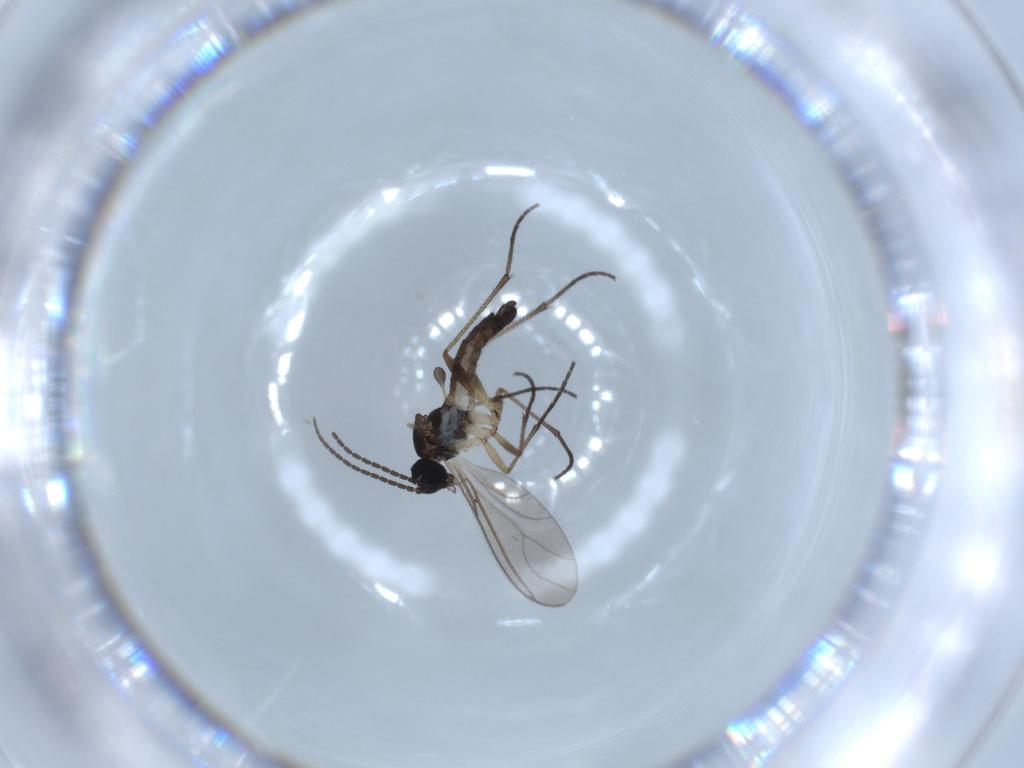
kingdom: Animalia
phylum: Arthropoda
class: Insecta
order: Diptera
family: Sciaridae
